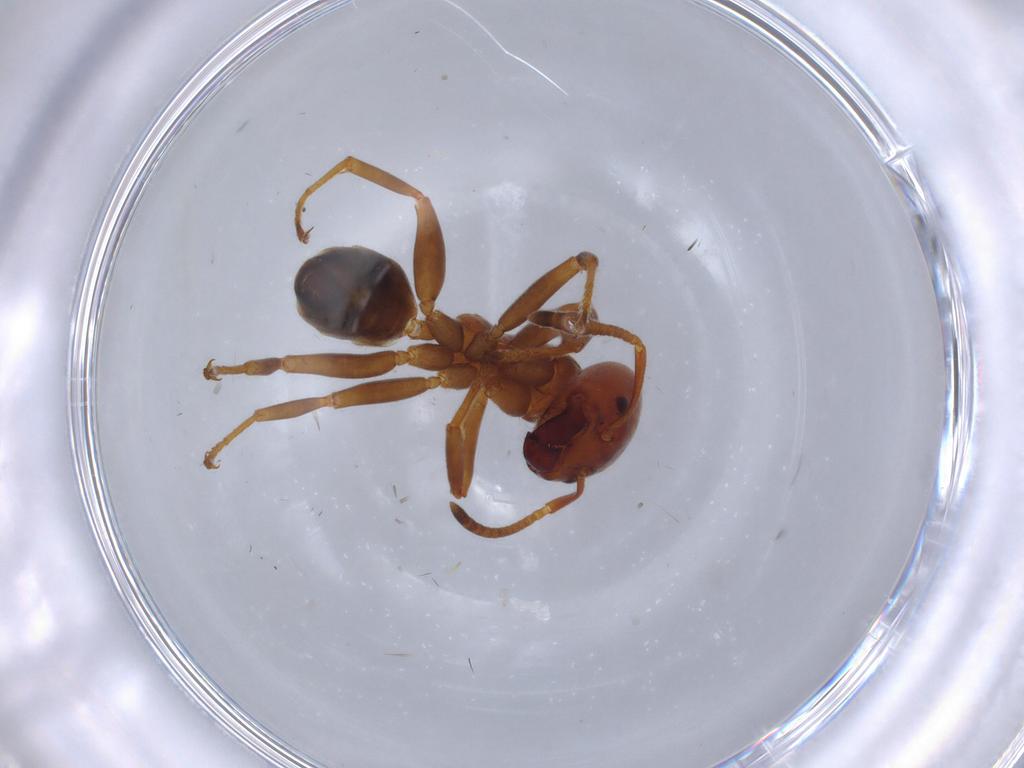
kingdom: Animalia
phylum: Arthropoda
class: Insecta
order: Hymenoptera
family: Formicidae
